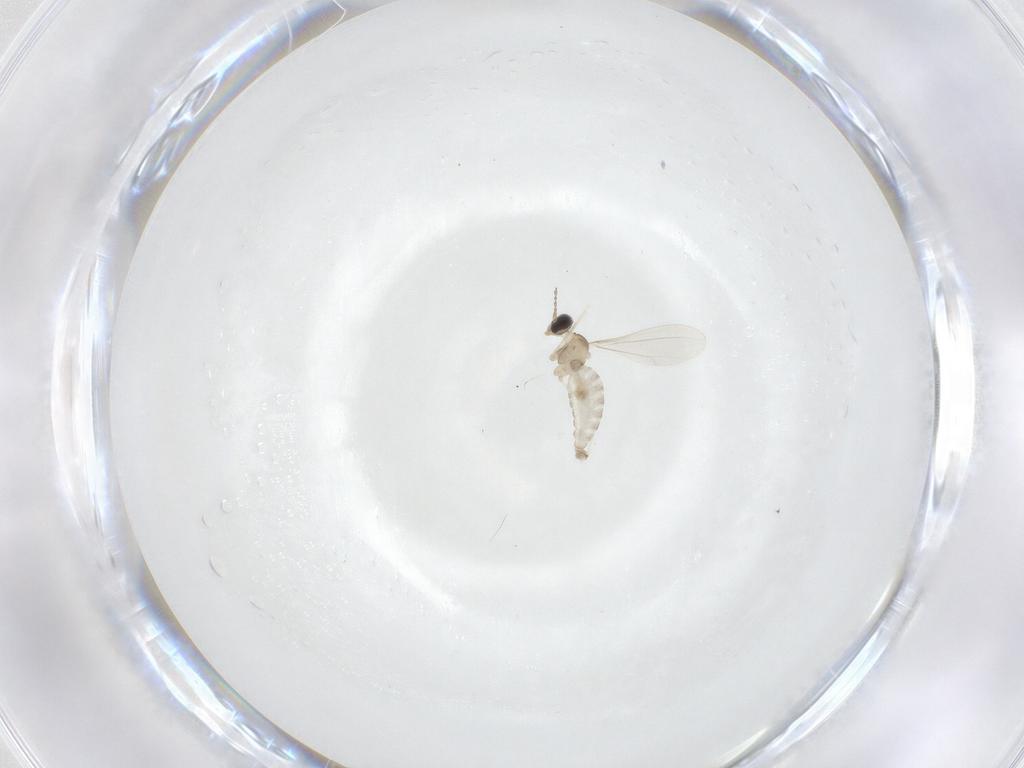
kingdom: Animalia
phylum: Arthropoda
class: Insecta
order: Diptera
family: Cecidomyiidae
